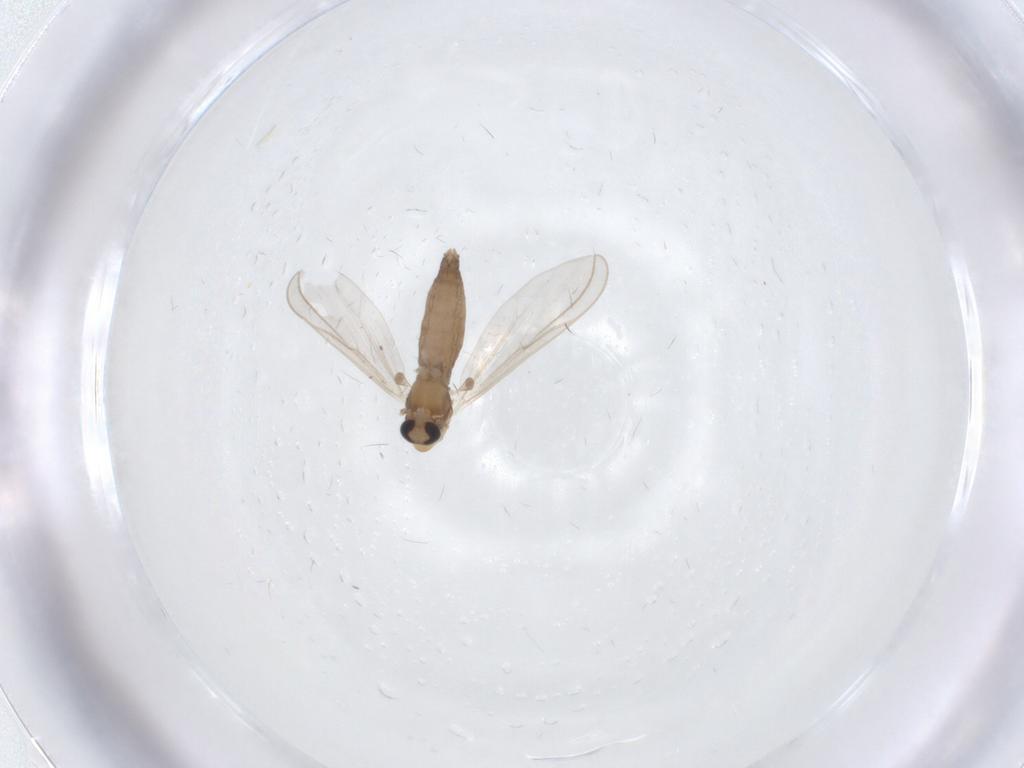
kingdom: Animalia
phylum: Arthropoda
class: Insecta
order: Diptera
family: Chironomidae
